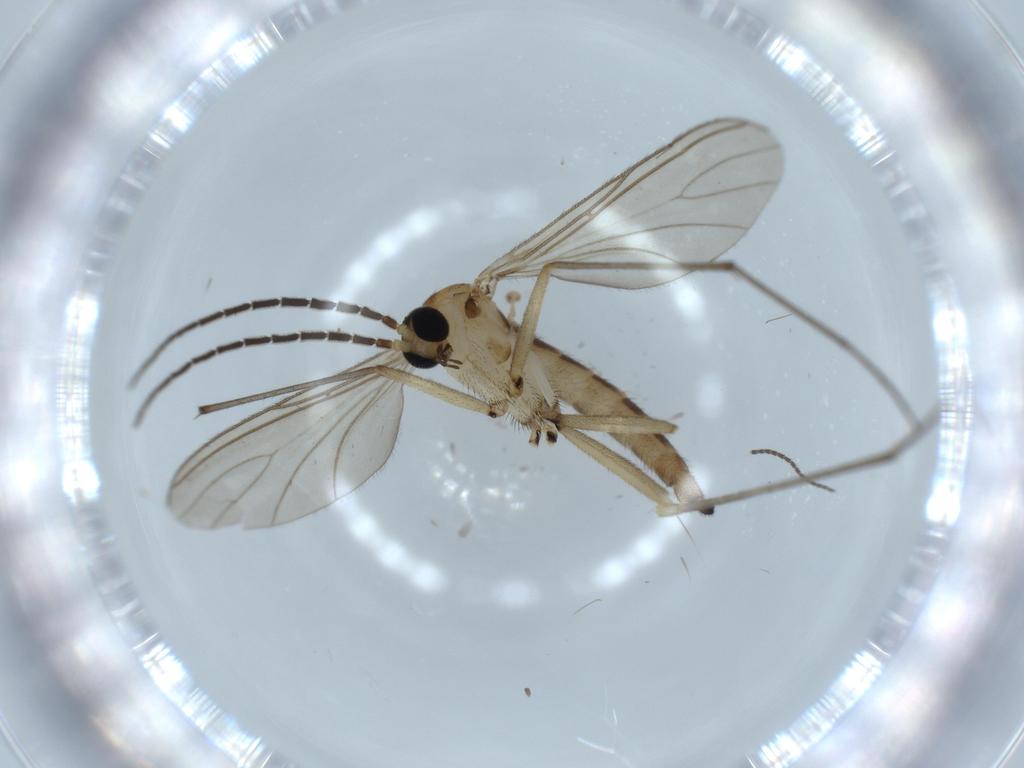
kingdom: Animalia
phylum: Arthropoda
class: Insecta
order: Diptera
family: Sciaridae
